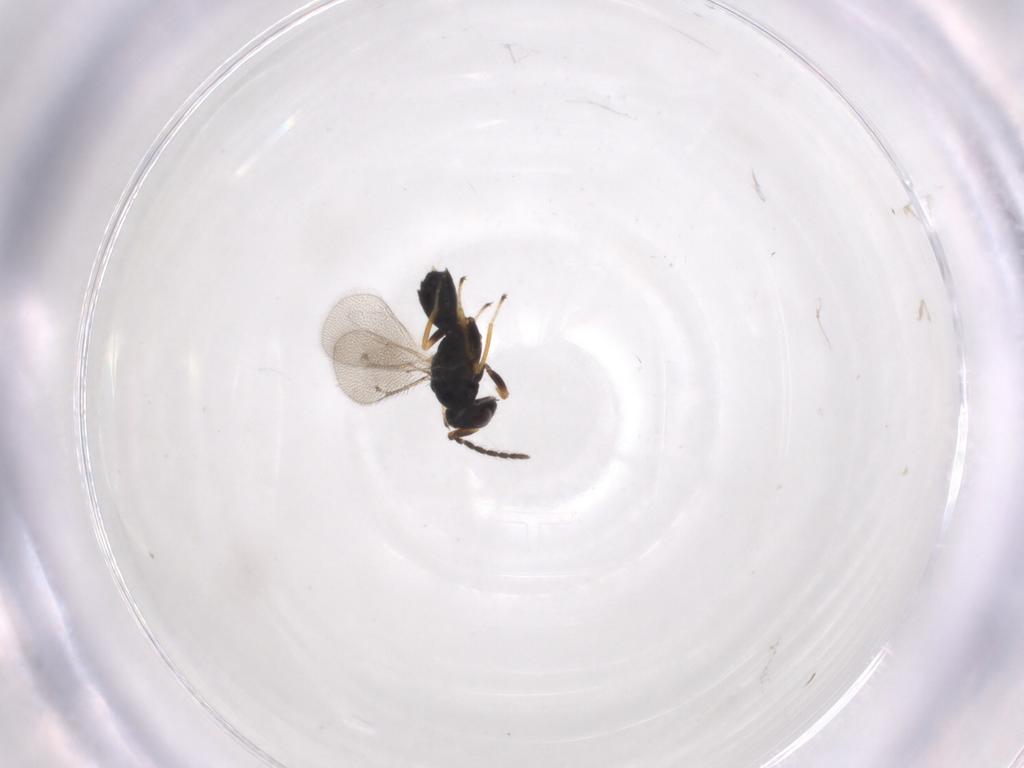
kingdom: Animalia
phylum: Arthropoda
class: Insecta
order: Hymenoptera
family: Eulophidae
